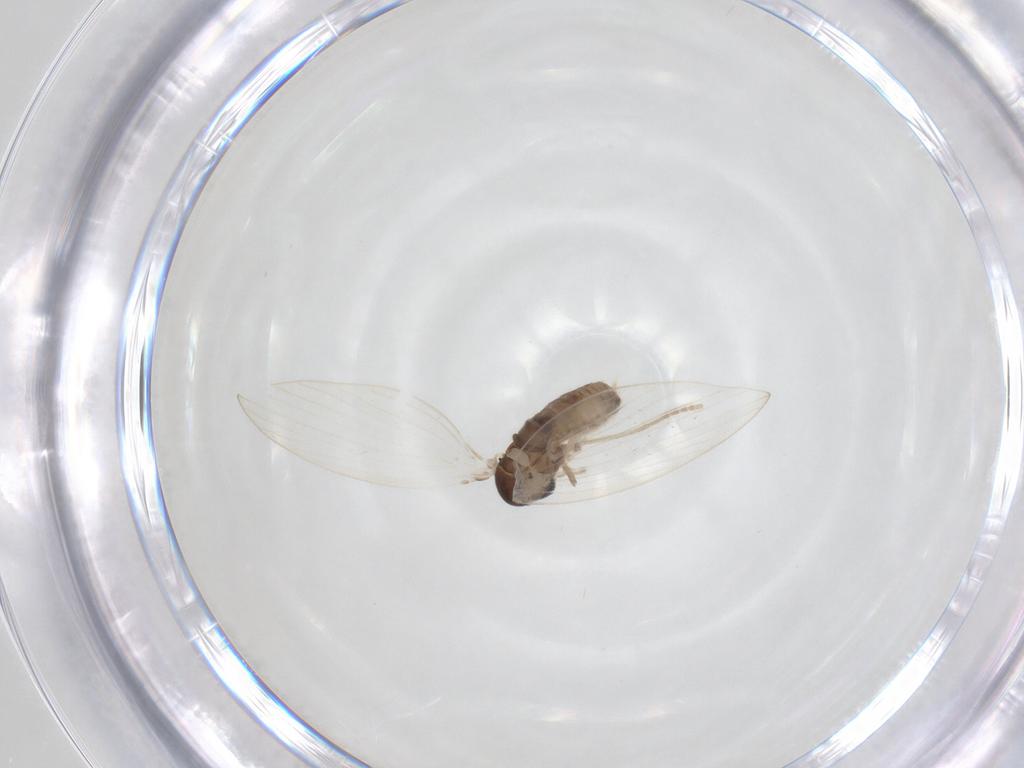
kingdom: Animalia
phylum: Arthropoda
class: Insecta
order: Diptera
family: Psychodidae
